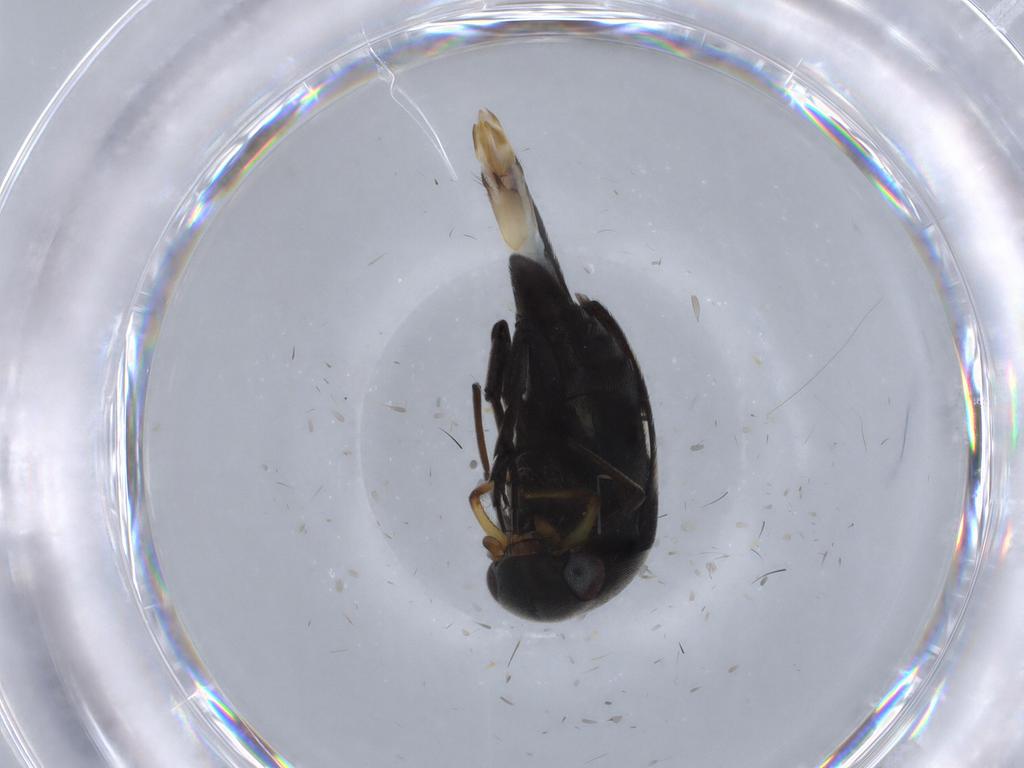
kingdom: Animalia
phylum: Arthropoda
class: Insecta
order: Coleoptera
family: Mordellidae
